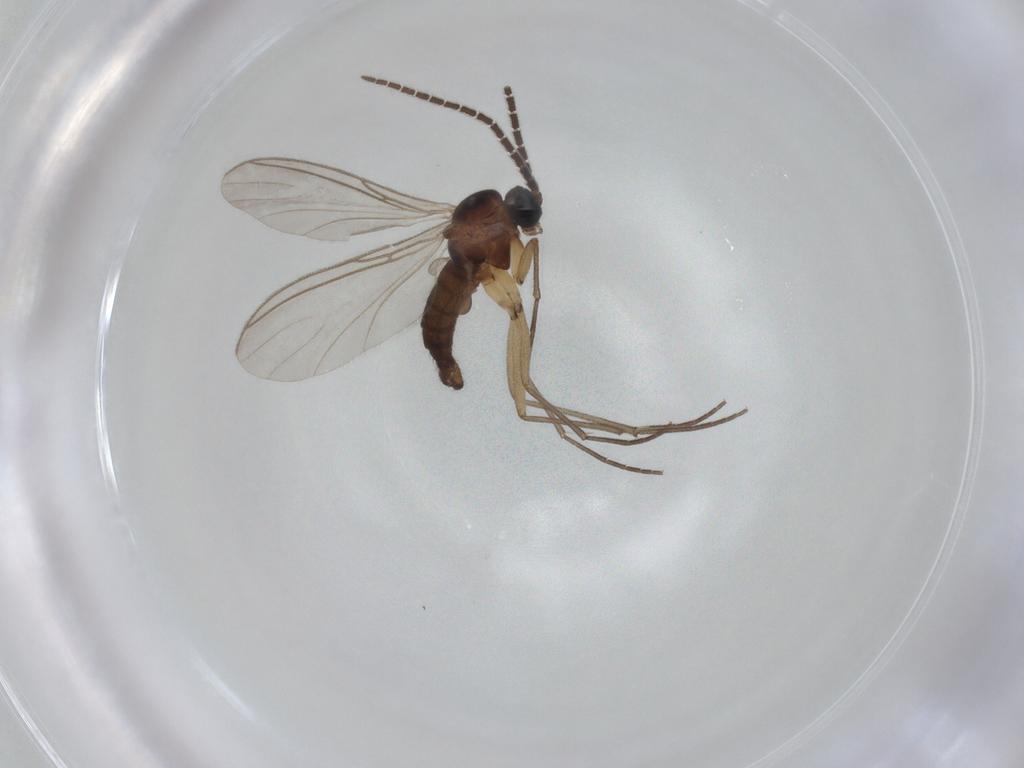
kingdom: Animalia
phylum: Arthropoda
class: Insecta
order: Diptera
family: Sciaridae
